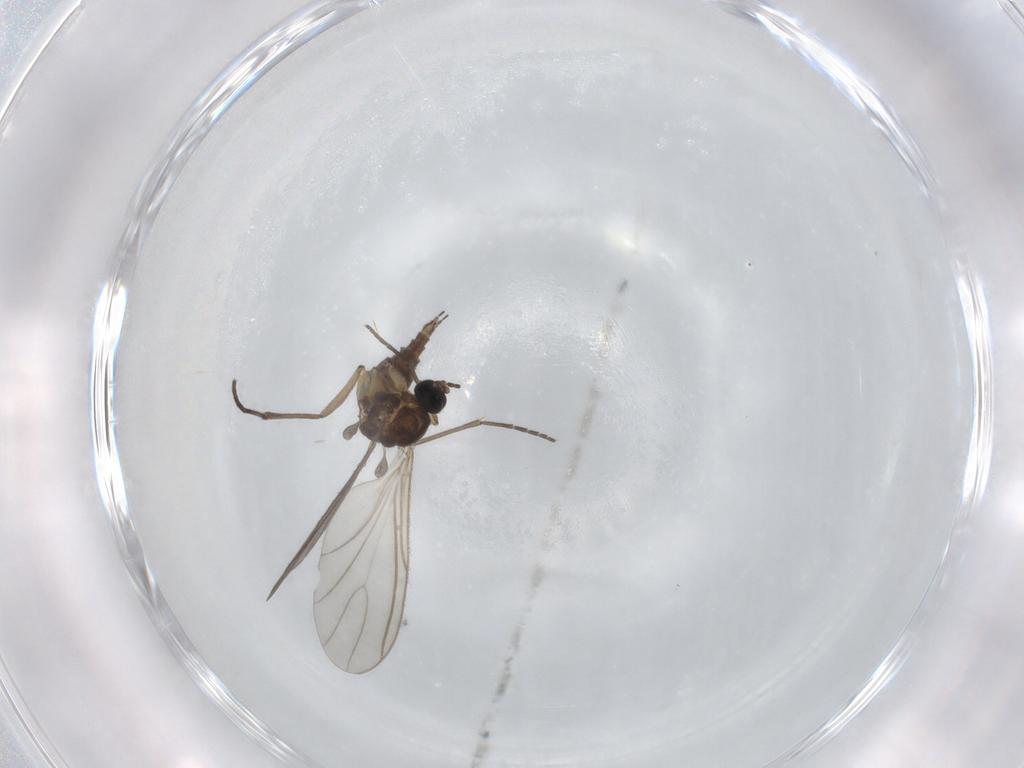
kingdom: Animalia
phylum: Arthropoda
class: Insecta
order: Diptera
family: Sciaridae
